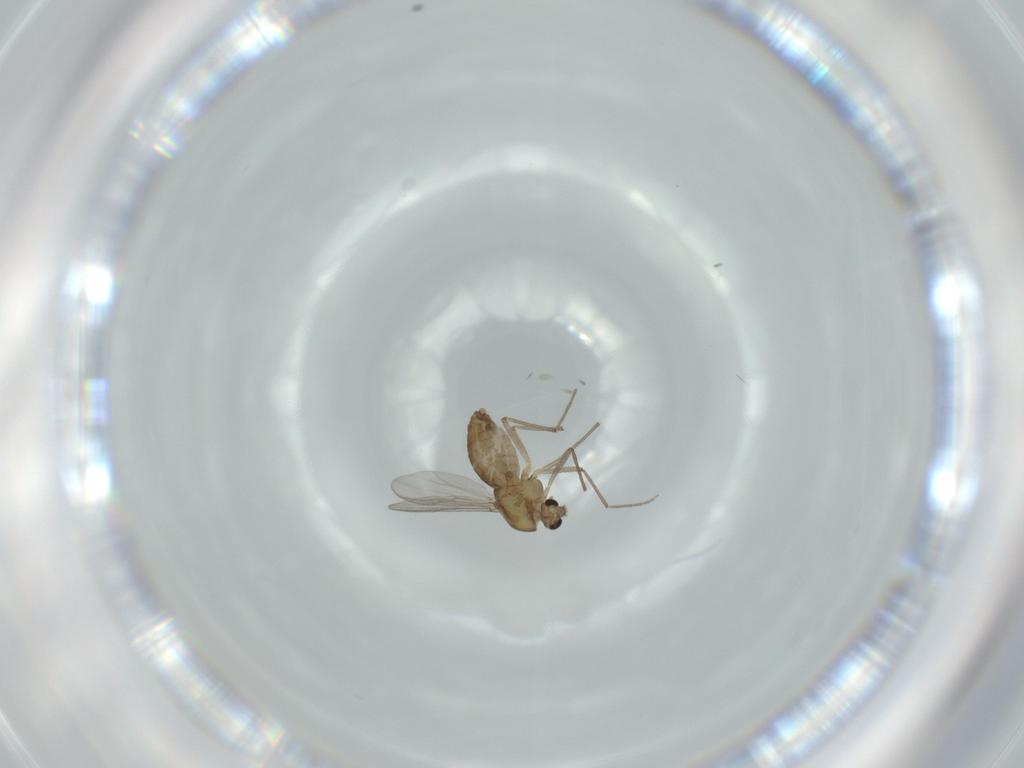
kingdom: Animalia
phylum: Arthropoda
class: Insecta
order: Diptera
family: Chironomidae
